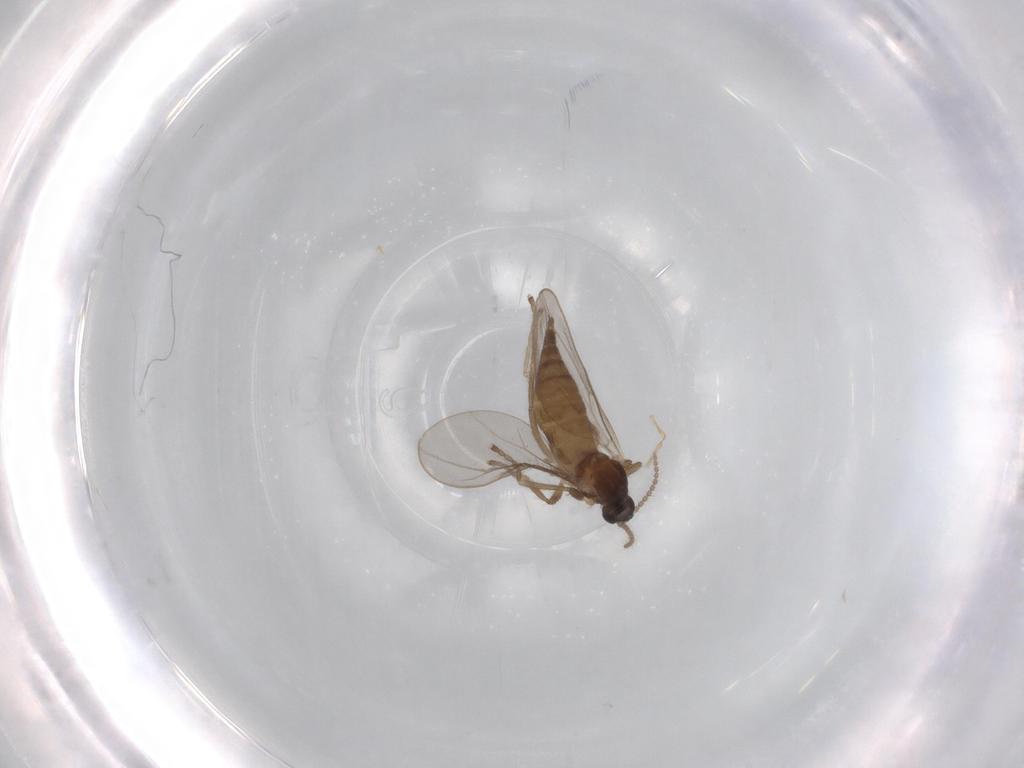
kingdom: Animalia
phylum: Arthropoda
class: Insecta
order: Diptera
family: Cecidomyiidae
